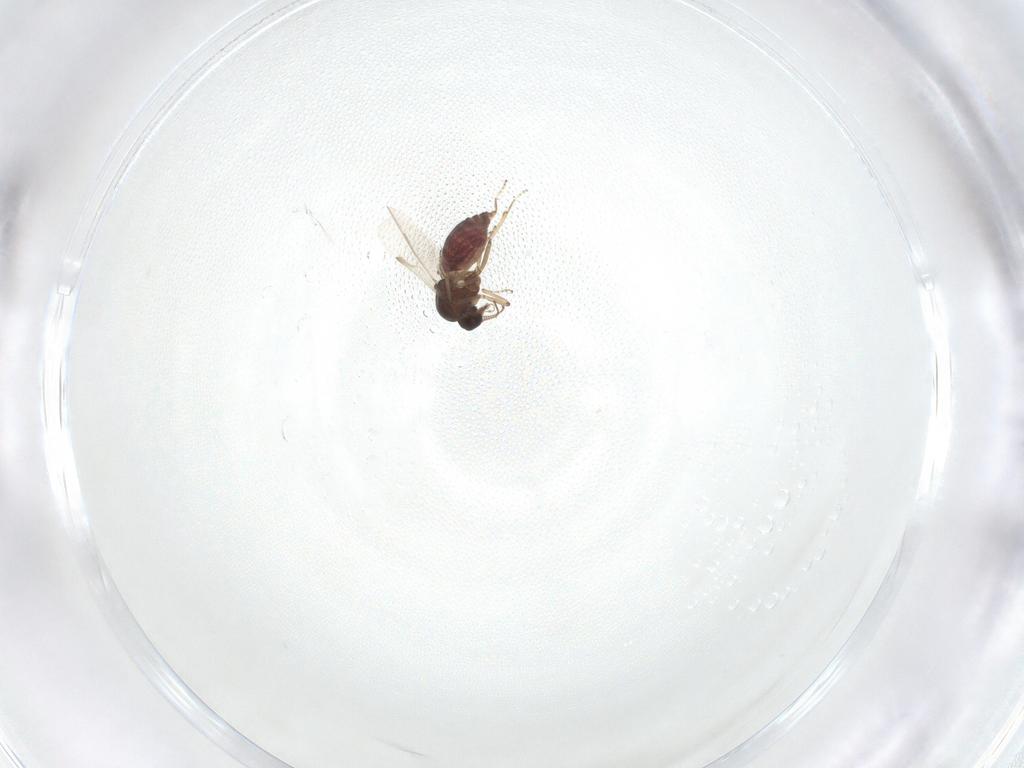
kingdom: Animalia
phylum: Arthropoda
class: Insecta
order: Diptera
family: Ceratopogonidae
